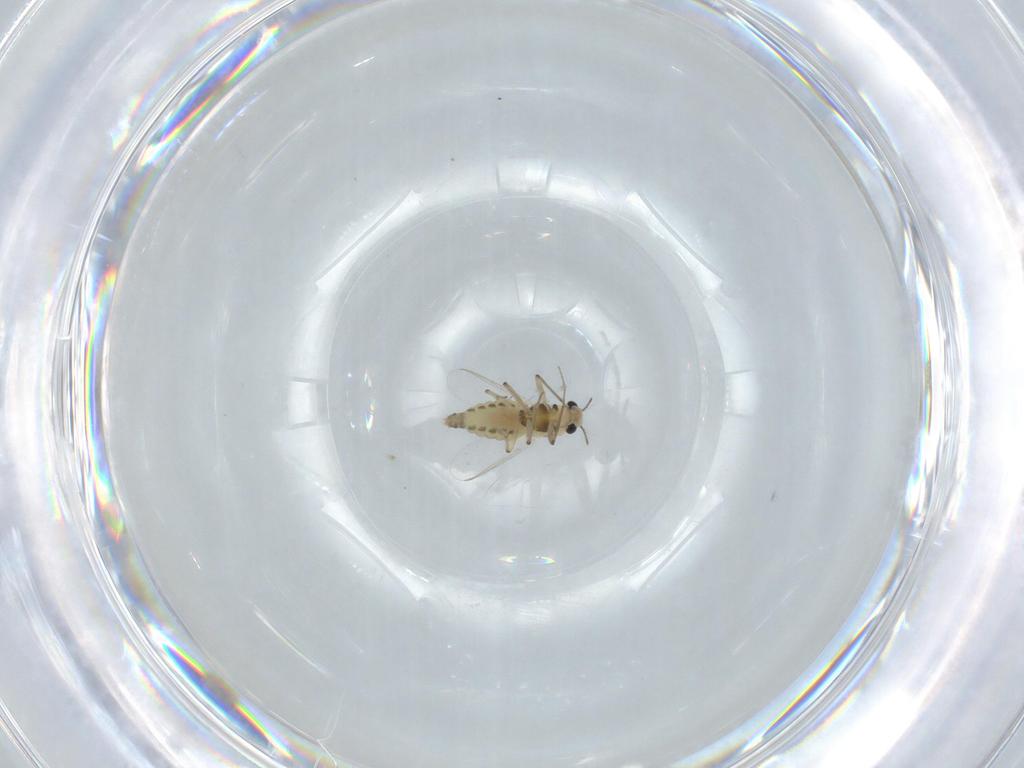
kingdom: Animalia
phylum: Arthropoda
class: Insecta
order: Diptera
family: Chironomidae
